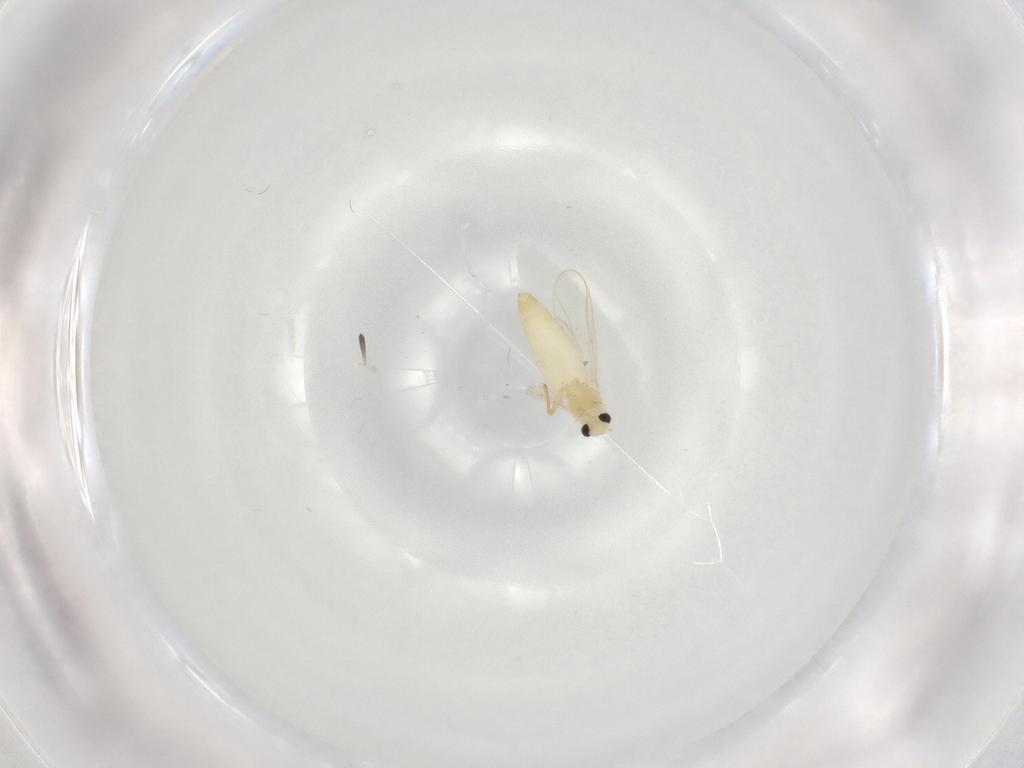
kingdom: Animalia
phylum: Arthropoda
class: Insecta
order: Diptera
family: Chironomidae
